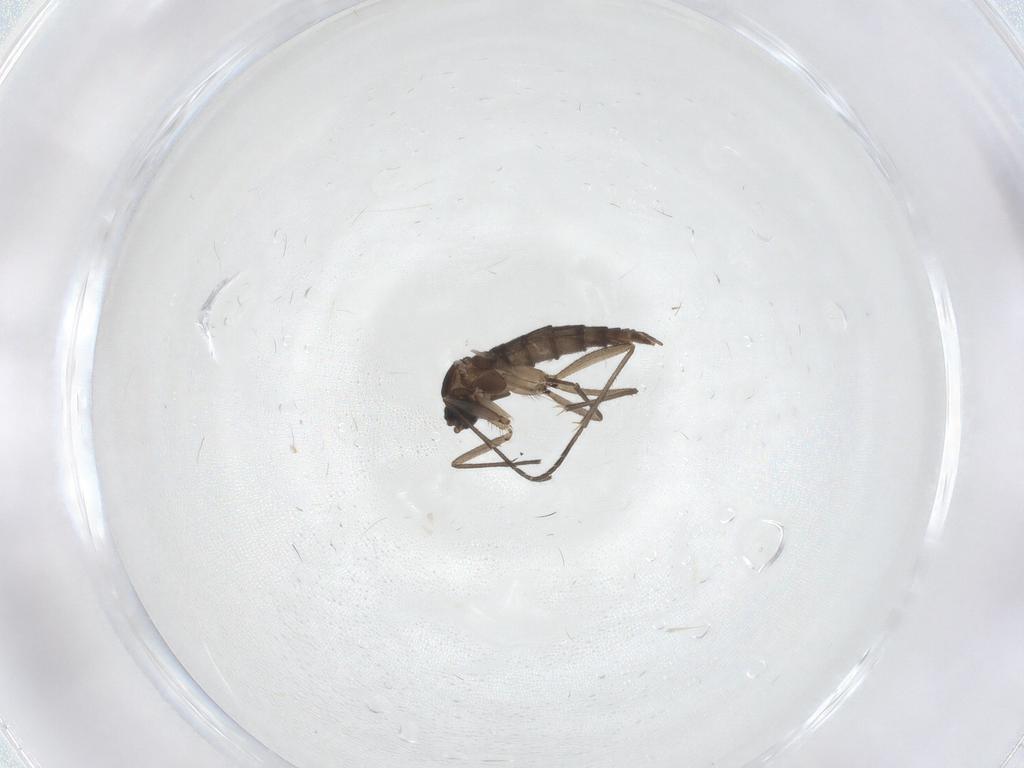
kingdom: Animalia
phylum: Arthropoda
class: Insecta
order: Diptera
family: Sciaridae
